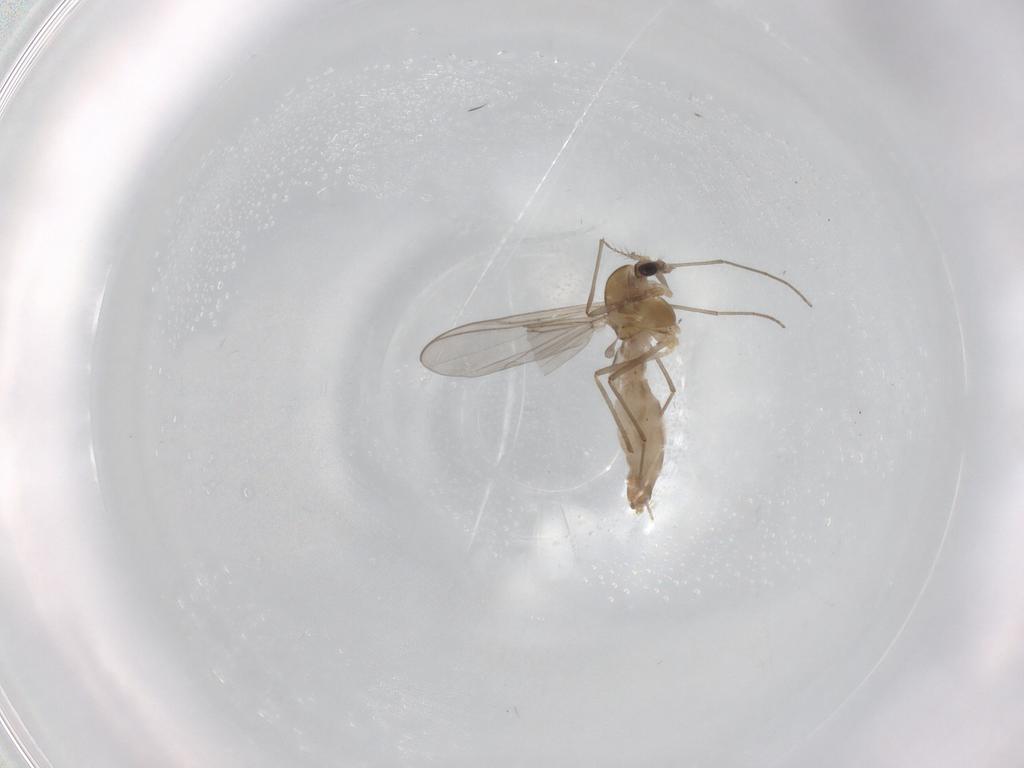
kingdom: Animalia
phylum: Arthropoda
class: Insecta
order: Diptera
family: Chironomidae
